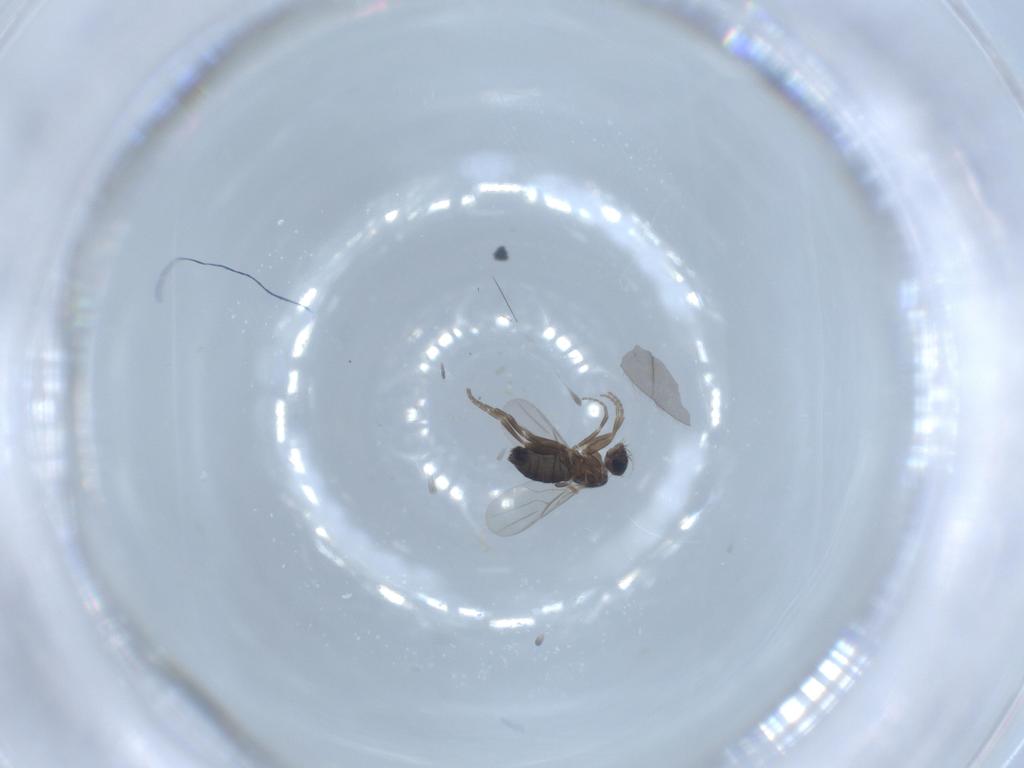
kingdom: Animalia
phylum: Arthropoda
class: Insecta
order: Diptera
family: Phoridae
